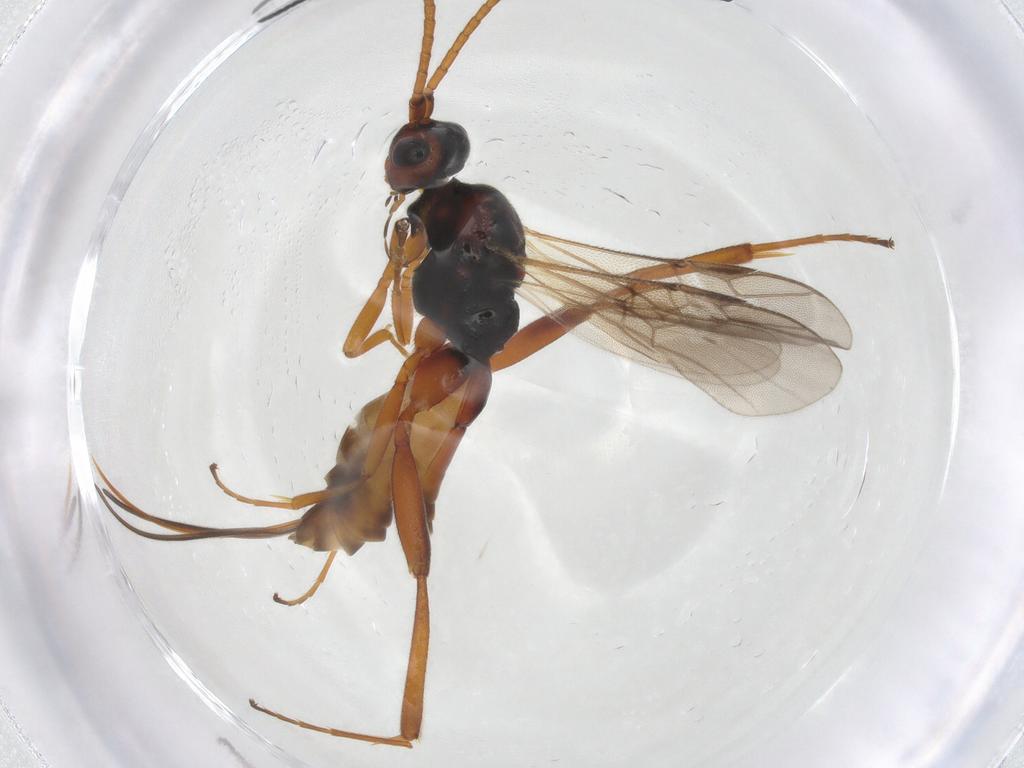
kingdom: Animalia
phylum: Arthropoda
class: Insecta
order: Hymenoptera
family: Braconidae
